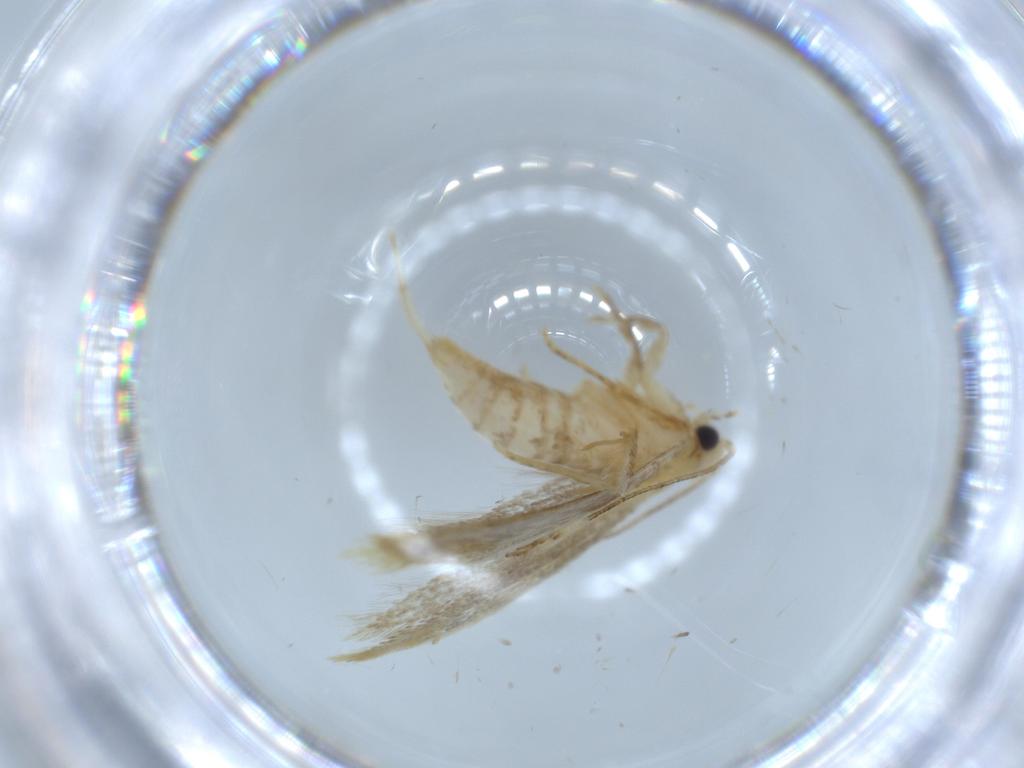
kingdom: Animalia
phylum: Arthropoda
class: Insecta
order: Lepidoptera
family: Tineidae
